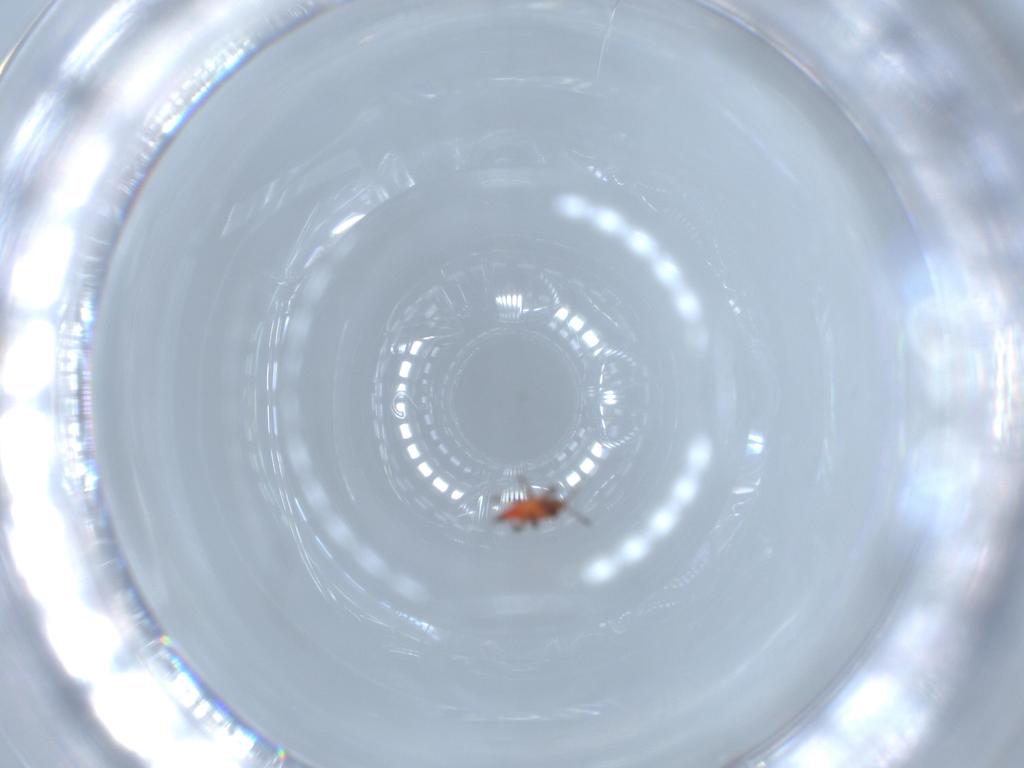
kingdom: Animalia
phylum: Arthropoda
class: Insecta
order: Thysanoptera
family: Phlaeothripidae
